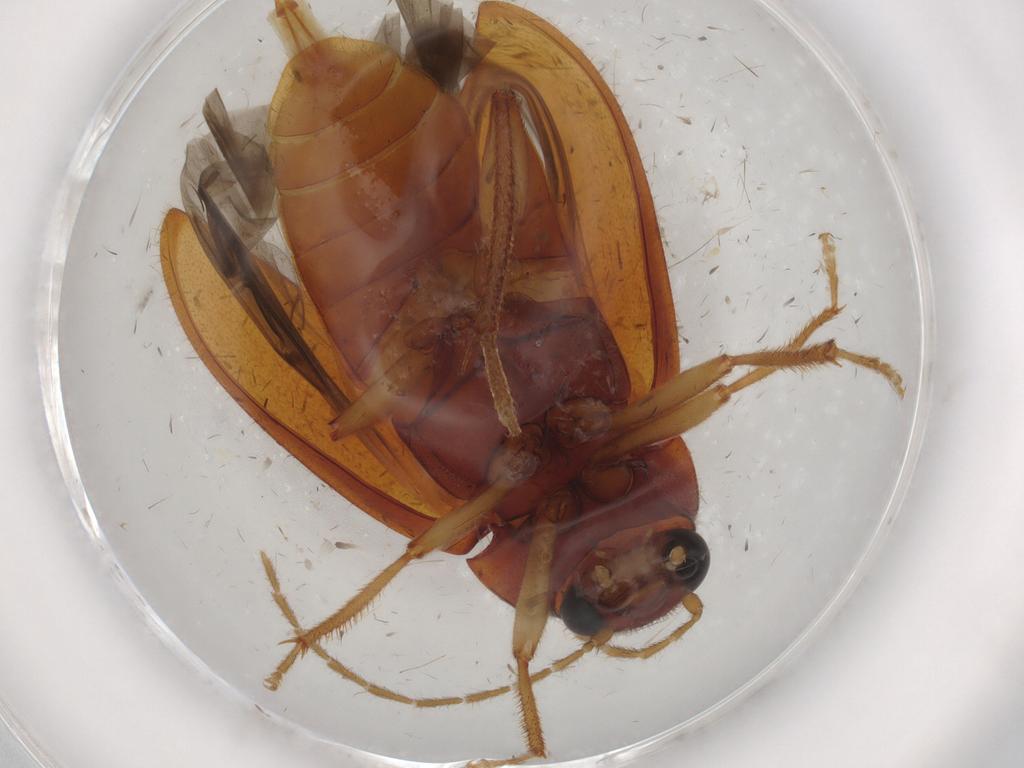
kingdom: Animalia
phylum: Arthropoda
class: Insecta
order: Coleoptera
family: Ptilodactylidae
